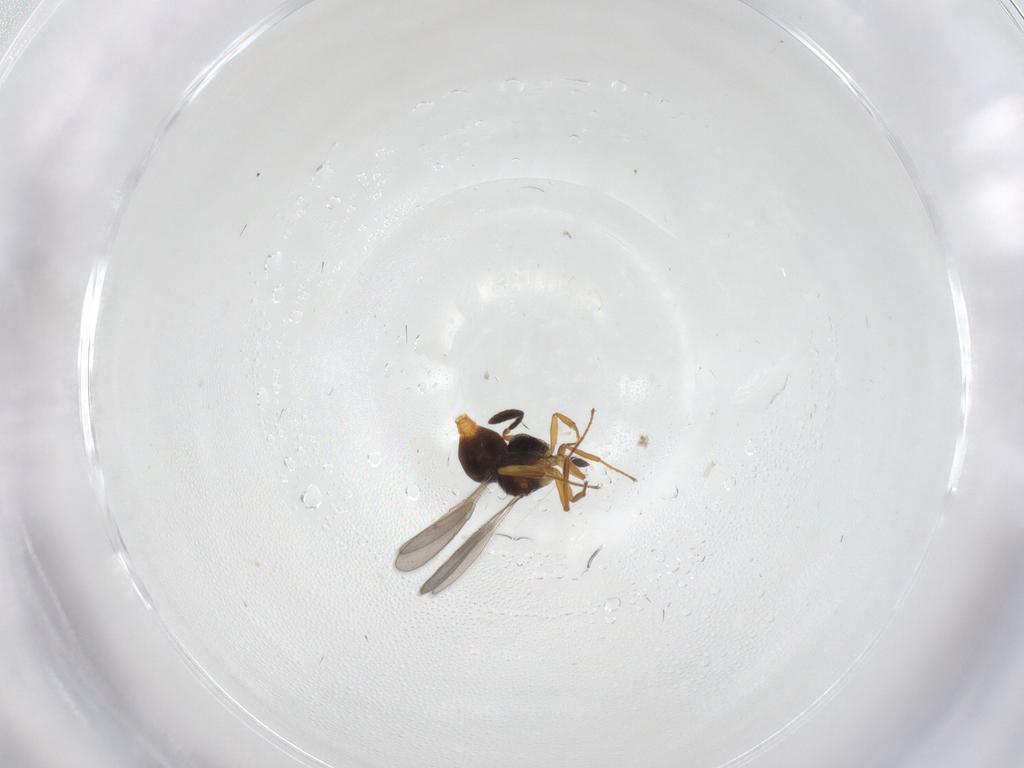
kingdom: Animalia
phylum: Arthropoda
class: Insecta
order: Hymenoptera
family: Scelionidae
